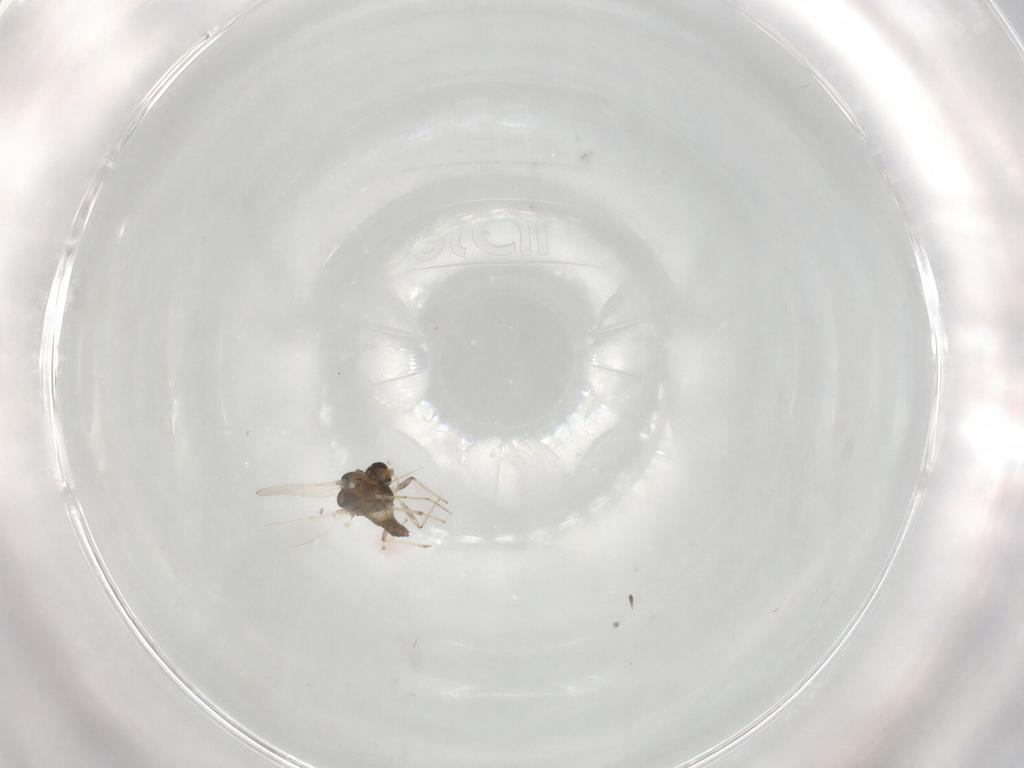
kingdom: Animalia
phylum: Arthropoda
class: Insecta
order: Diptera
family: Chironomidae
